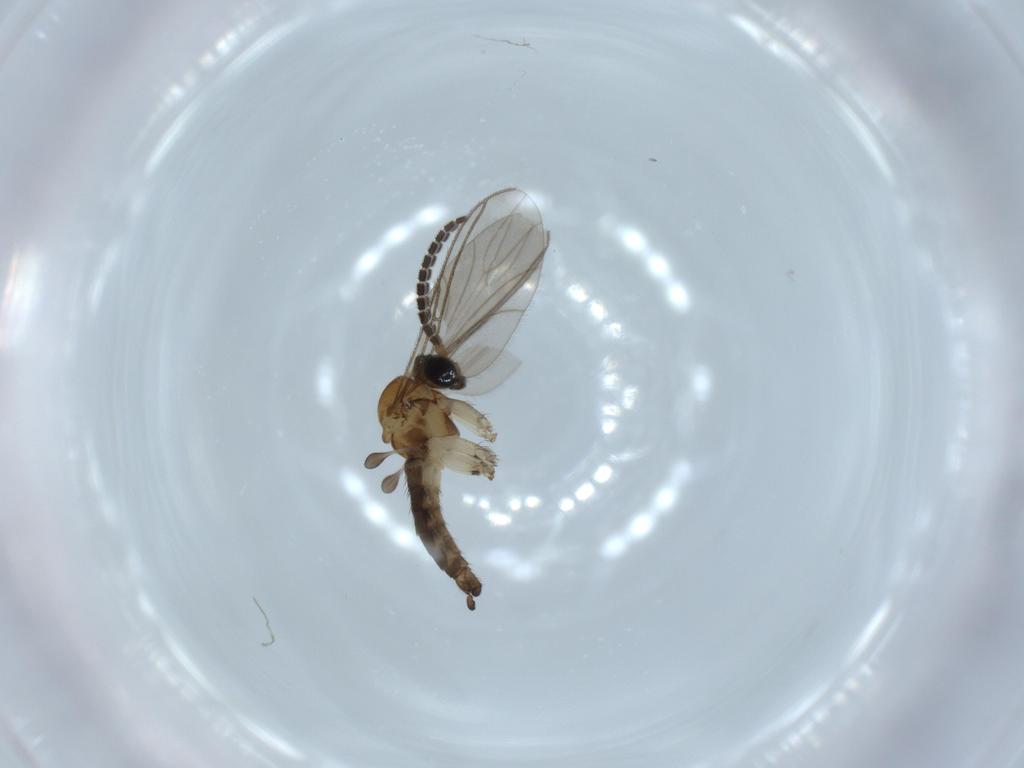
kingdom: Animalia
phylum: Arthropoda
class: Insecta
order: Diptera
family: Sciaridae
